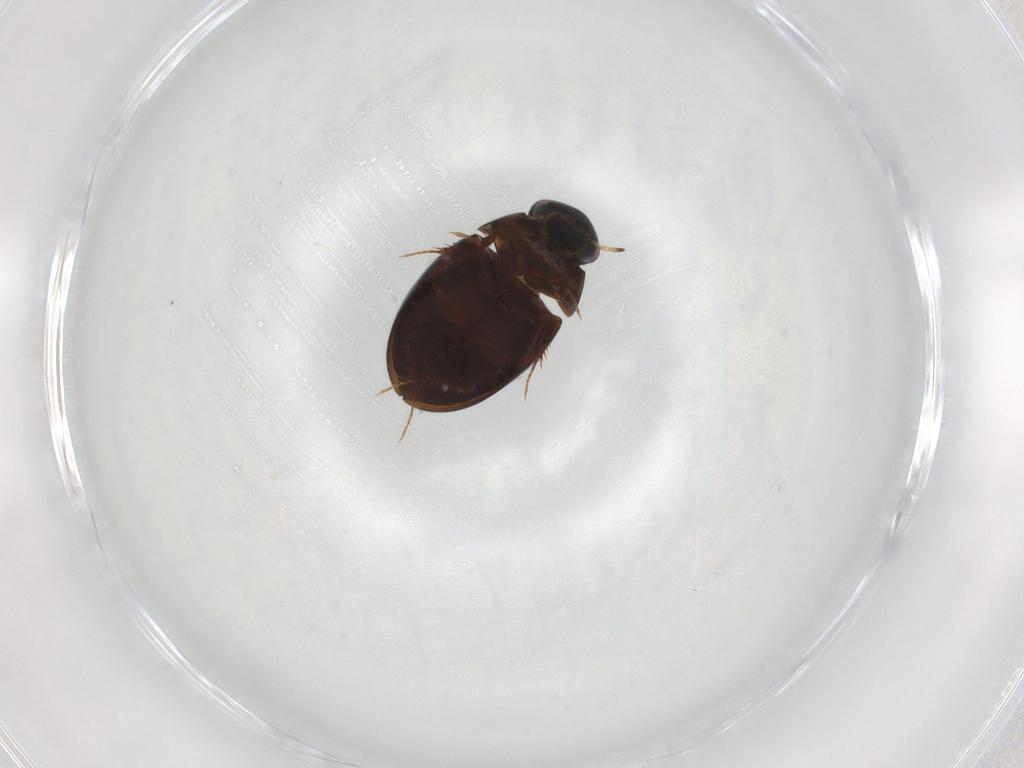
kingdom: Animalia
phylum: Arthropoda
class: Insecta
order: Coleoptera
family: Hydrophilidae
